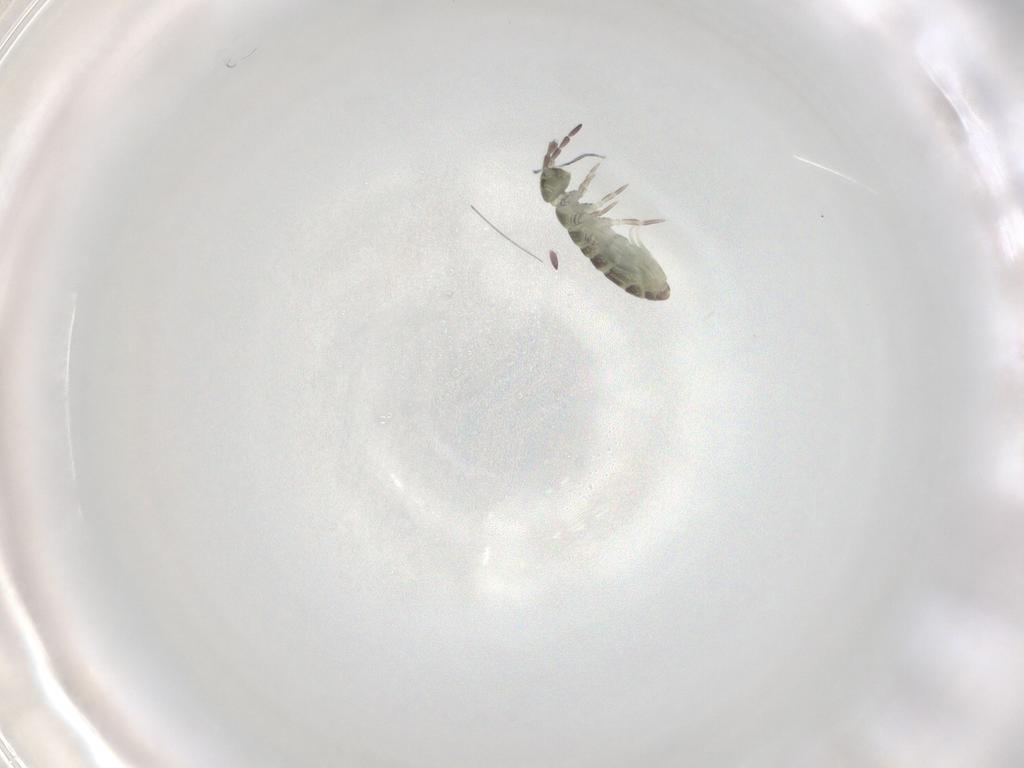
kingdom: Animalia
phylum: Arthropoda
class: Collembola
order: Entomobryomorpha
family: Isotomidae
